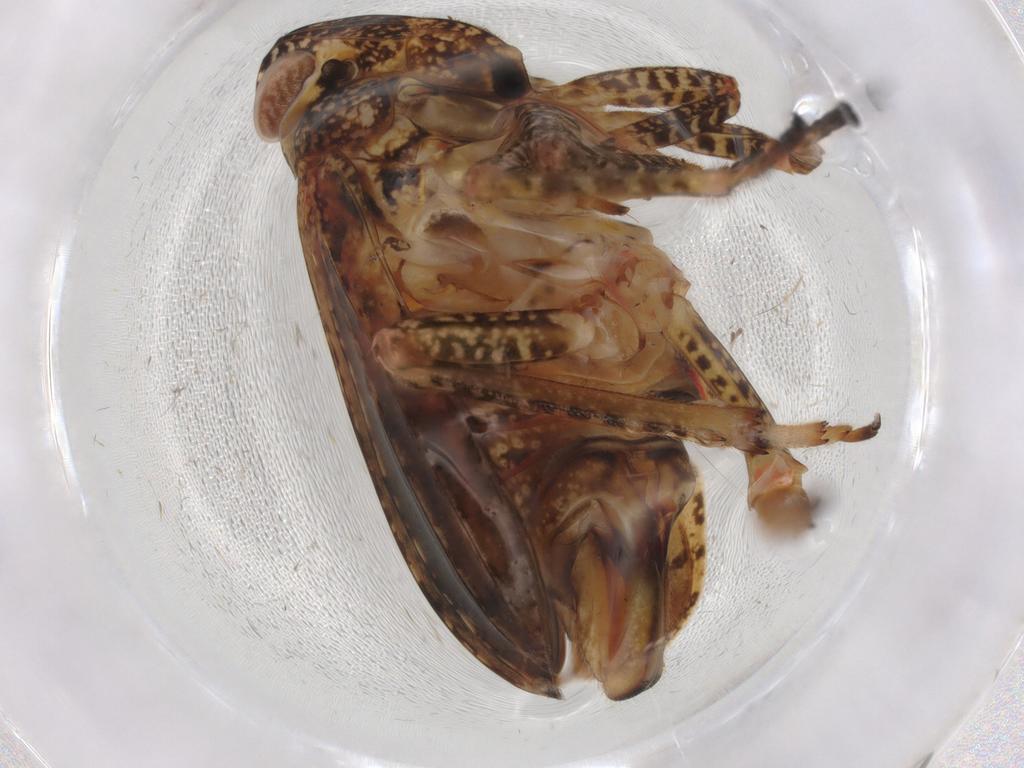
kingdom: Animalia
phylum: Arthropoda
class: Insecta
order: Hemiptera
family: Tropiduchidae
